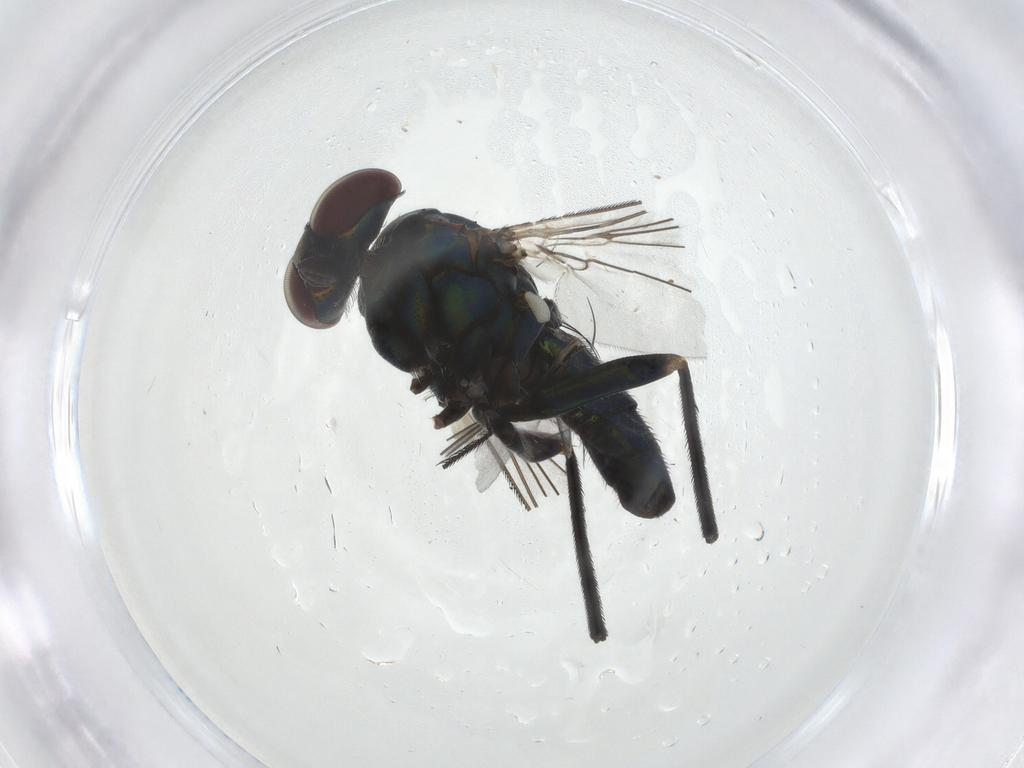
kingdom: Animalia
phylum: Arthropoda
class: Insecta
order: Diptera
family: Dolichopodidae
